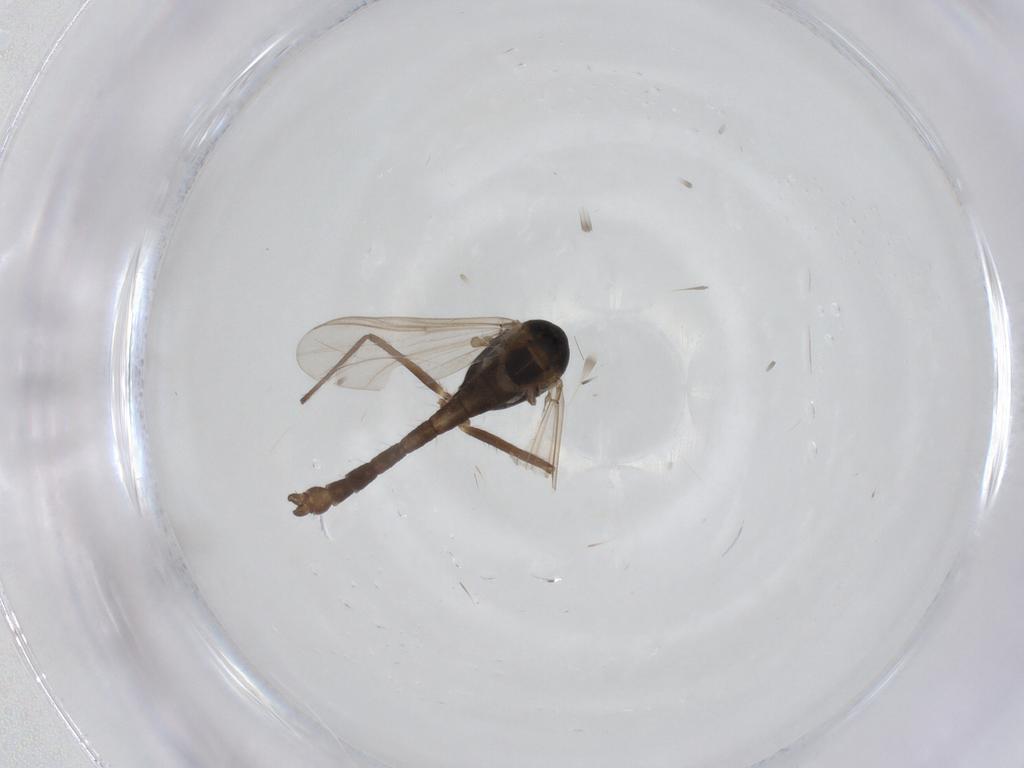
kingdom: Animalia
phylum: Arthropoda
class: Insecta
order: Diptera
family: Chironomidae
